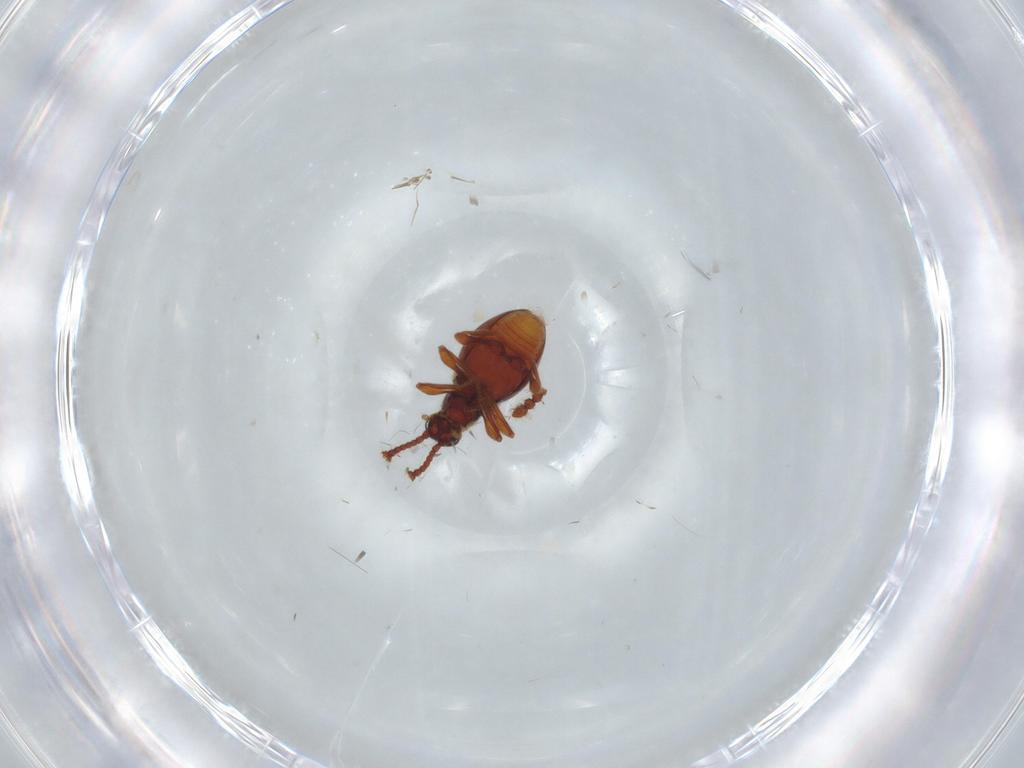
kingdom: Animalia
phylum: Arthropoda
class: Insecta
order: Coleoptera
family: Staphylinidae
